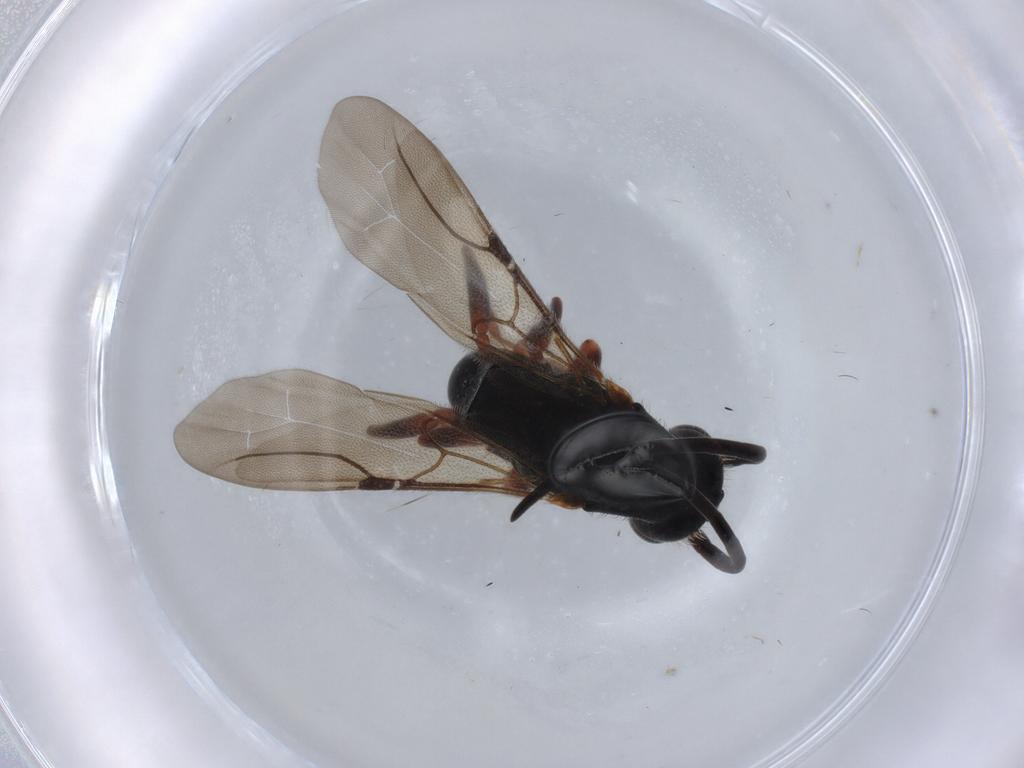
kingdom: Animalia
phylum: Arthropoda
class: Insecta
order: Hymenoptera
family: Bethylidae
